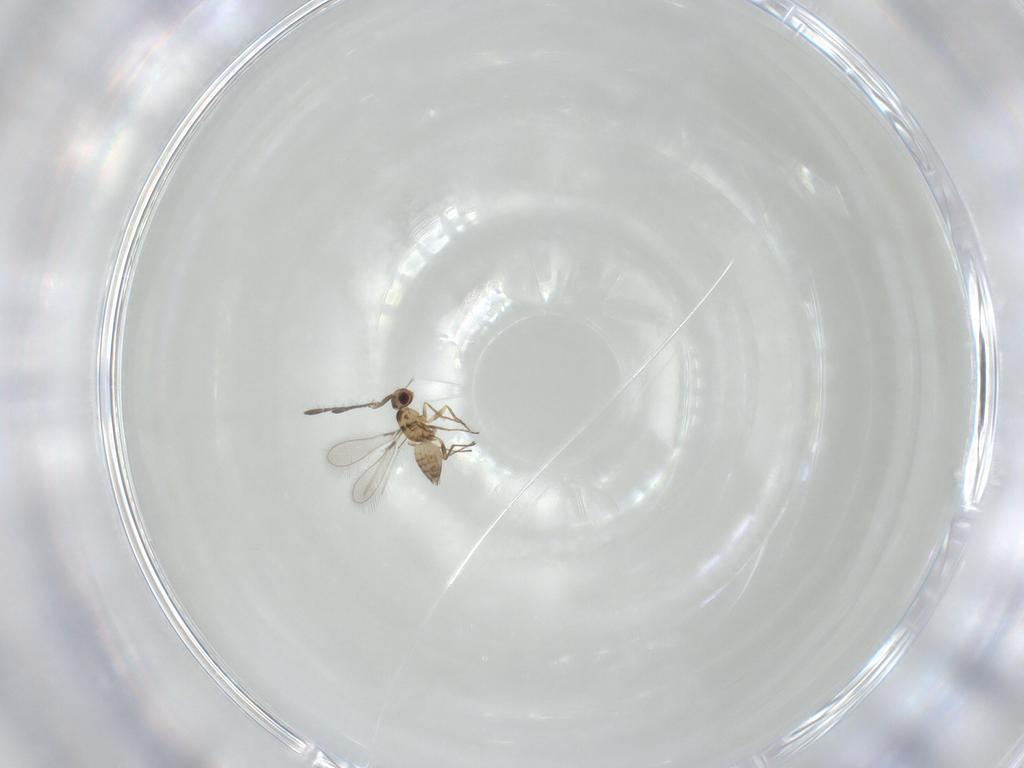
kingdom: Animalia
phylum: Arthropoda
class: Insecta
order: Hymenoptera
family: Mymaridae
